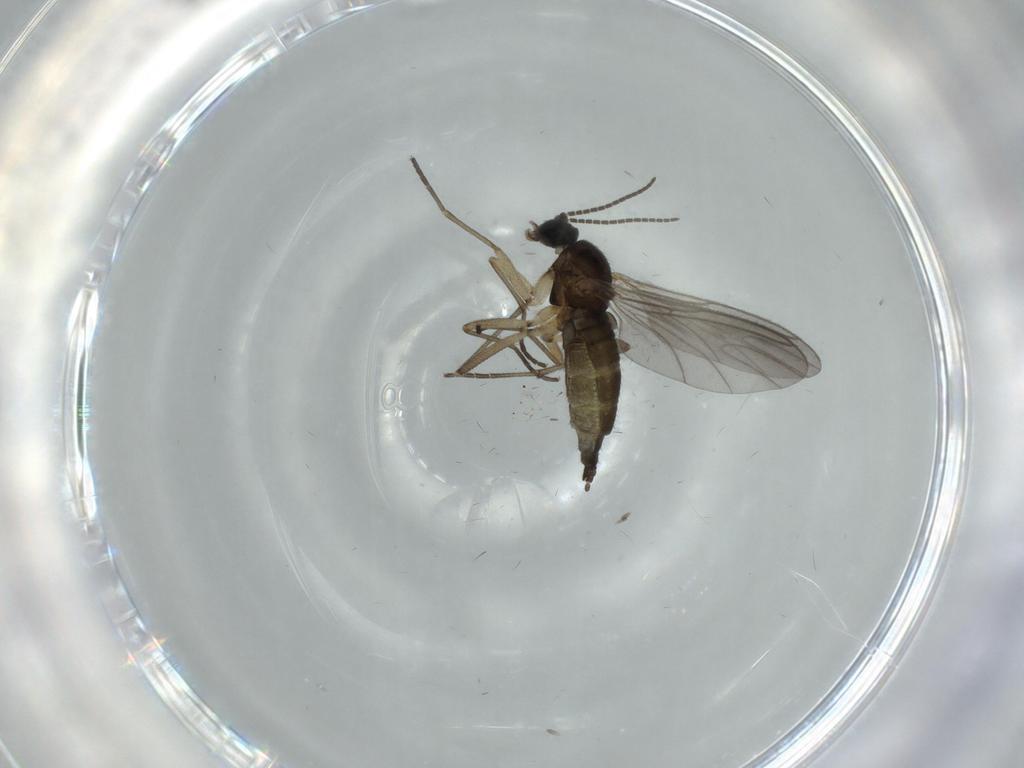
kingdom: Animalia
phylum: Arthropoda
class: Insecta
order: Diptera
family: Sciaridae
